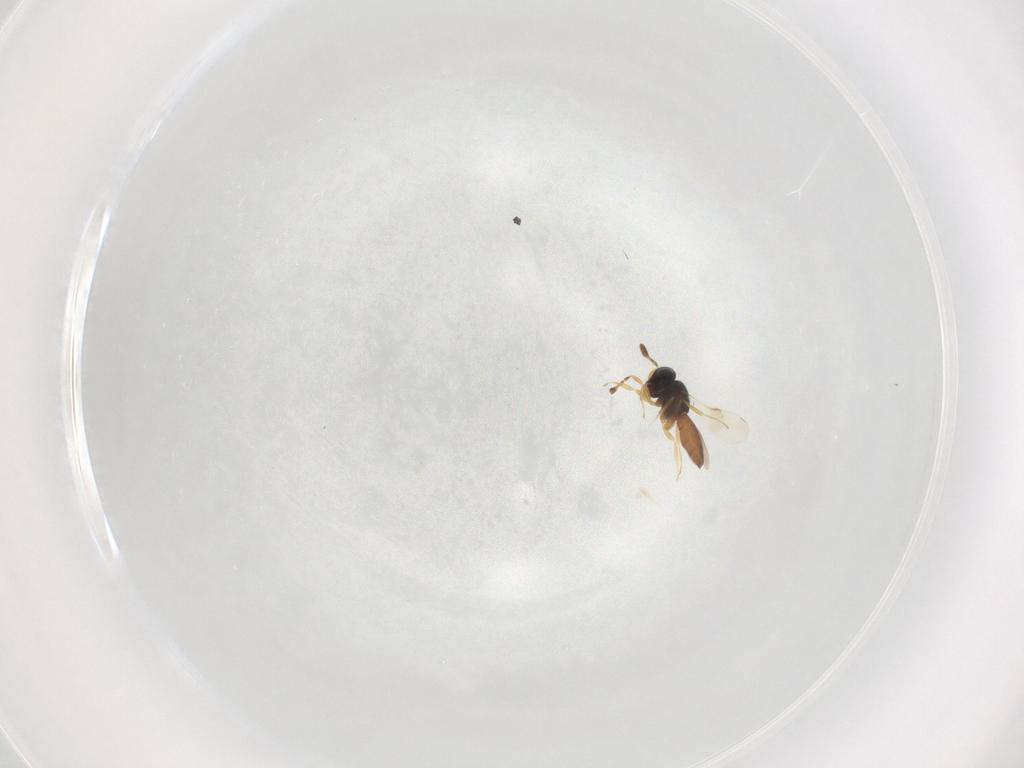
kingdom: Animalia
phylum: Arthropoda
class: Insecta
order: Hymenoptera
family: Scelionidae
